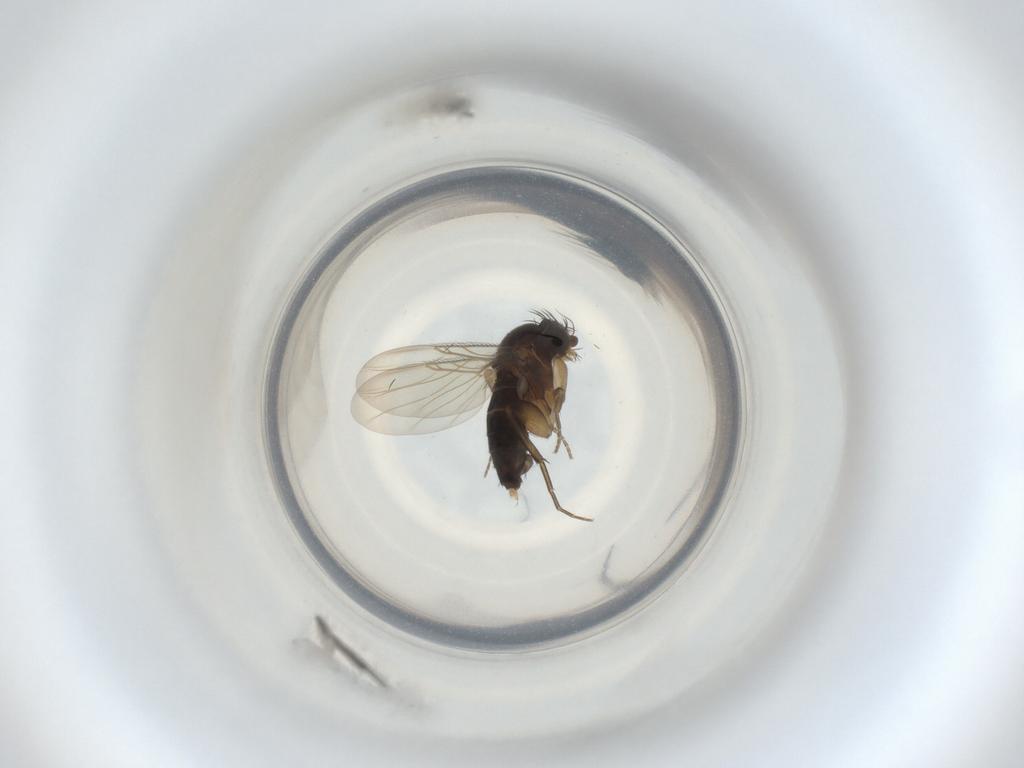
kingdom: Animalia
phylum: Arthropoda
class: Insecta
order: Diptera
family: Phoridae
